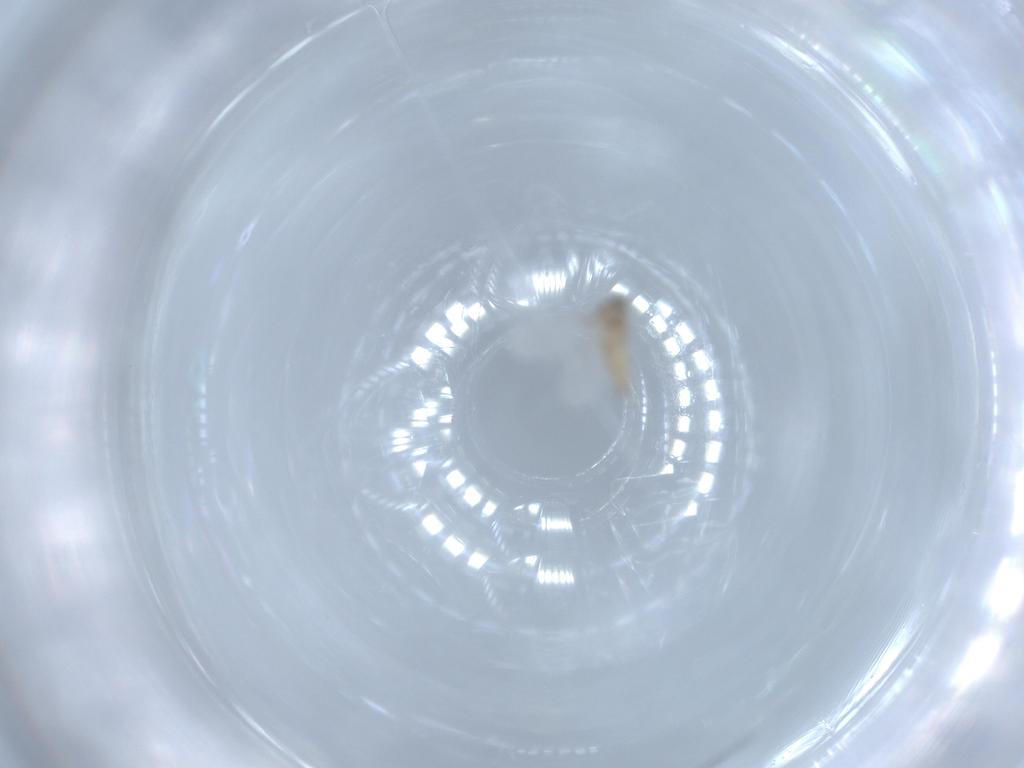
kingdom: Animalia
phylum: Arthropoda
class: Insecta
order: Diptera
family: Cecidomyiidae
